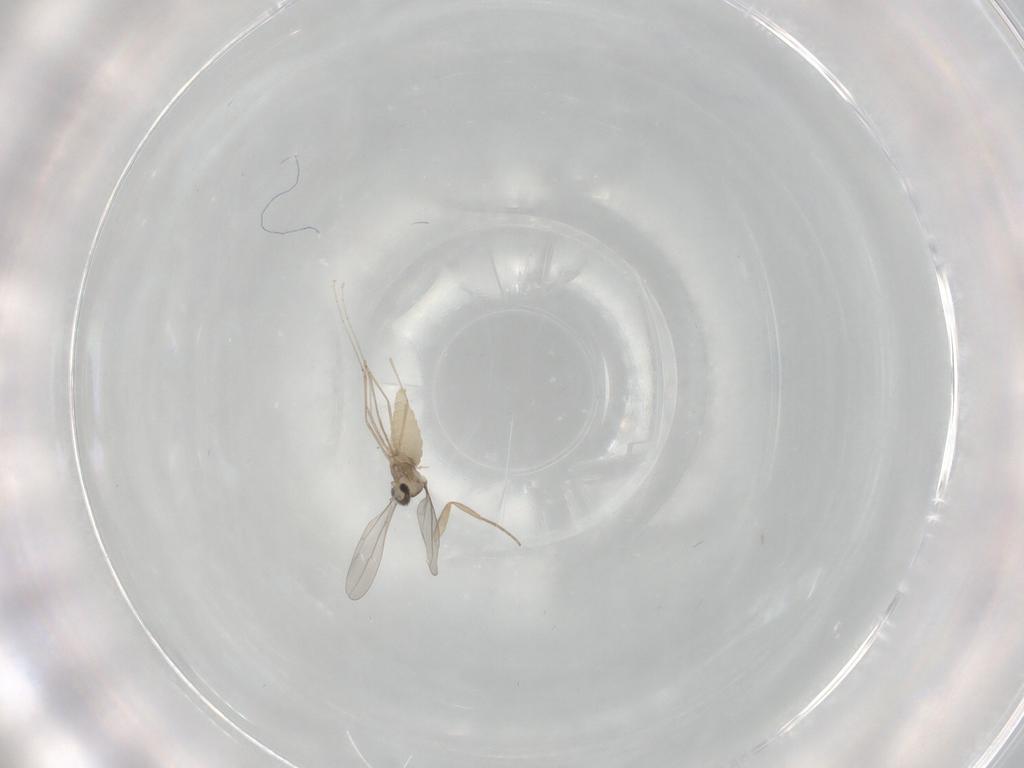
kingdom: Animalia
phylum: Arthropoda
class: Insecta
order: Diptera
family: Cecidomyiidae
